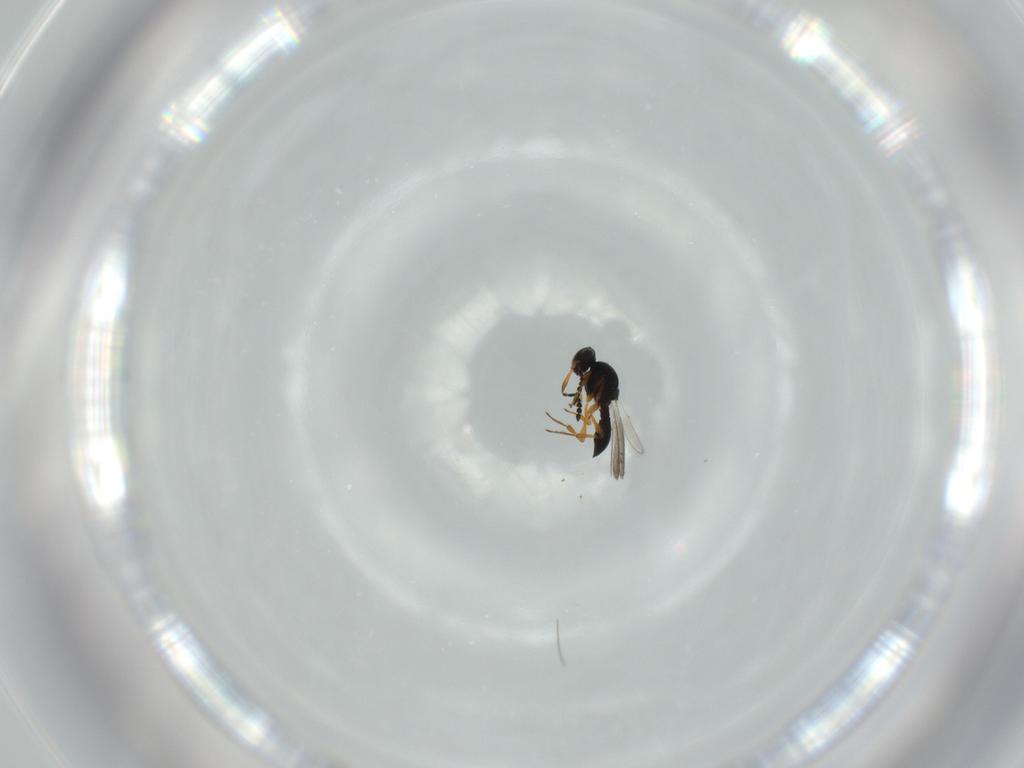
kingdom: Animalia
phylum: Arthropoda
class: Insecta
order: Hymenoptera
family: Platygastridae
